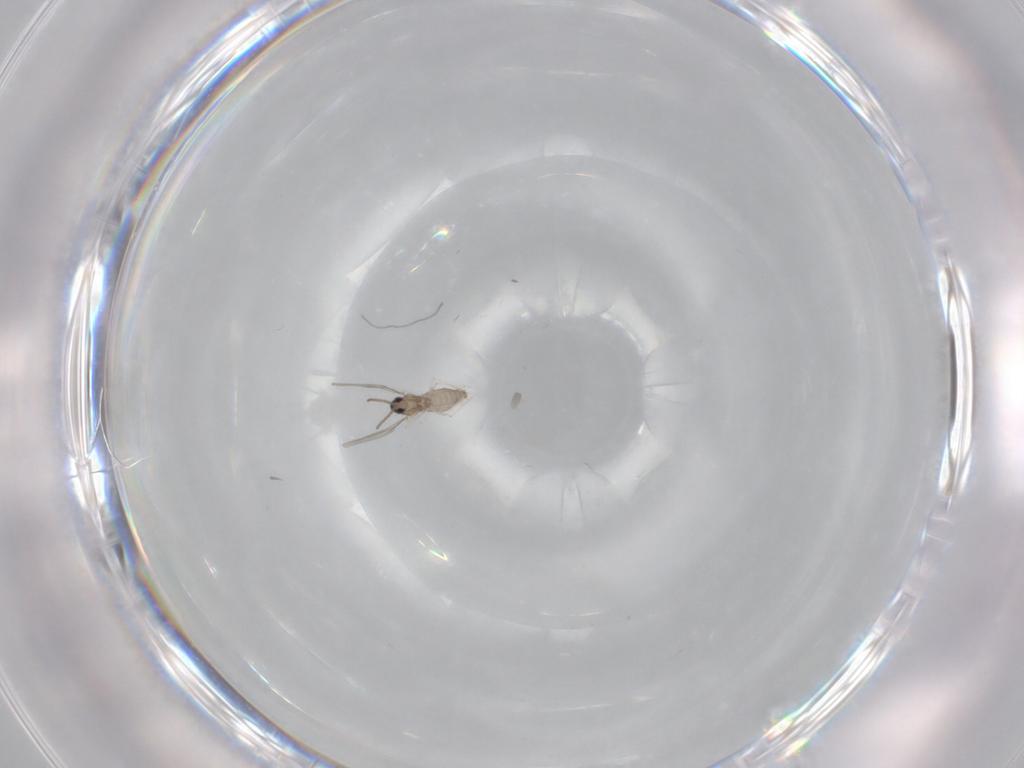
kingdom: Animalia
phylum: Arthropoda
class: Insecta
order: Diptera
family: Cecidomyiidae
